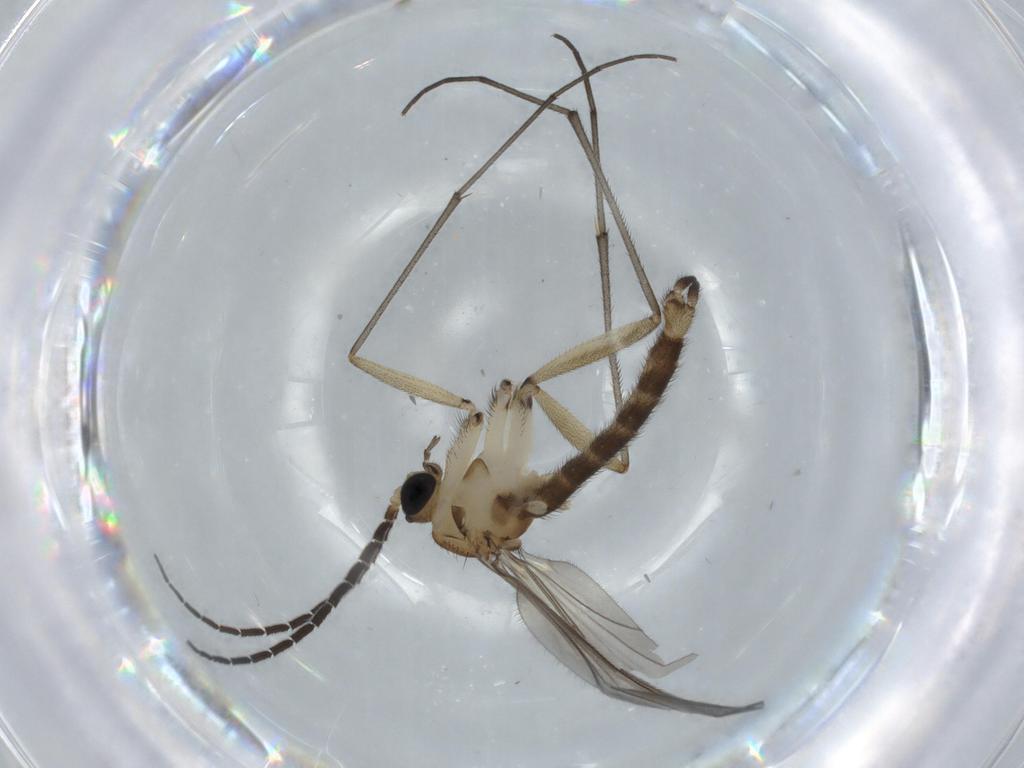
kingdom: Animalia
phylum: Arthropoda
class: Insecta
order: Diptera
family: Sciaridae
